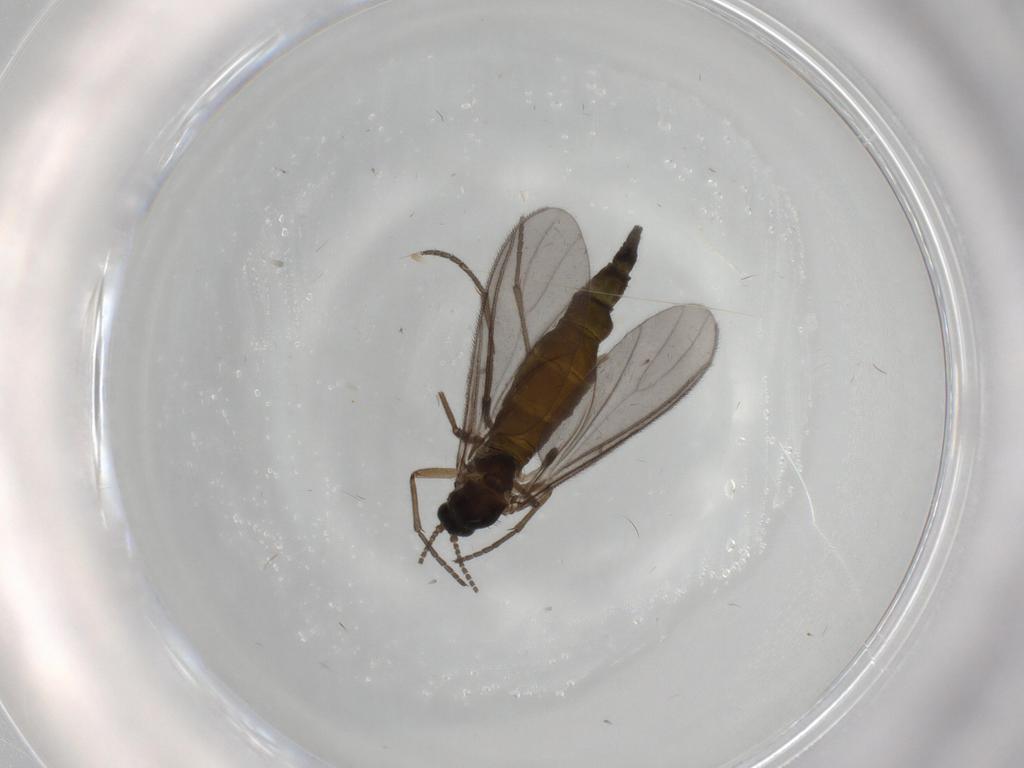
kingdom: Animalia
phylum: Arthropoda
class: Insecta
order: Diptera
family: Sciaridae
